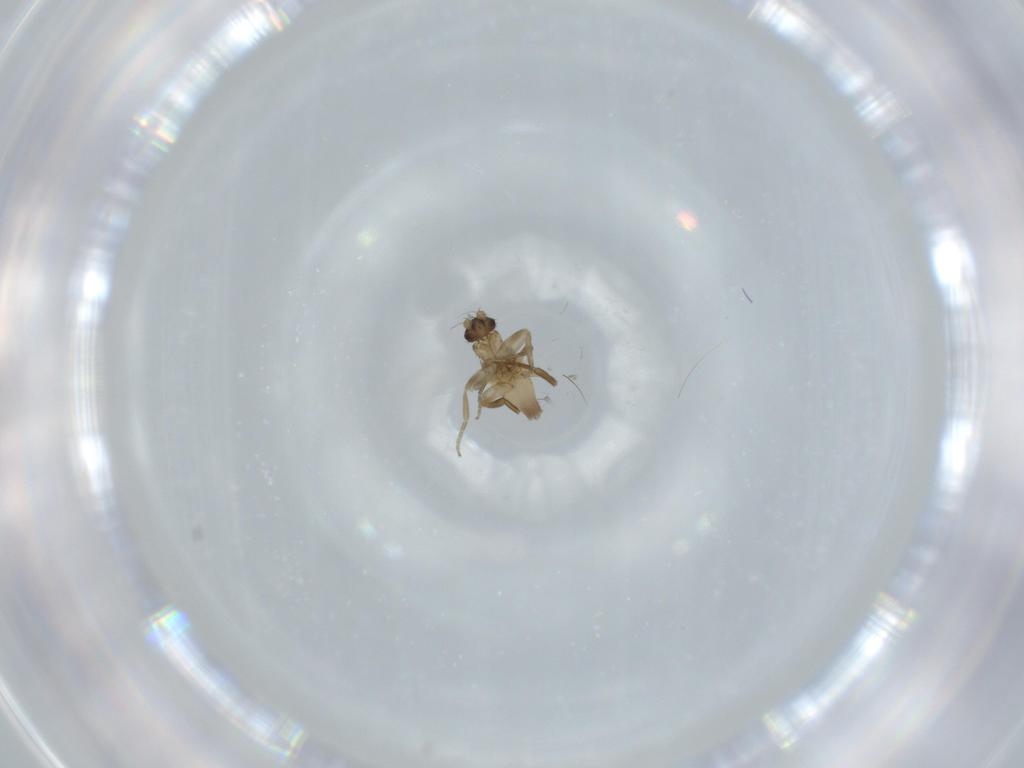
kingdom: Animalia
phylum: Arthropoda
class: Insecta
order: Diptera
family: Phoridae
